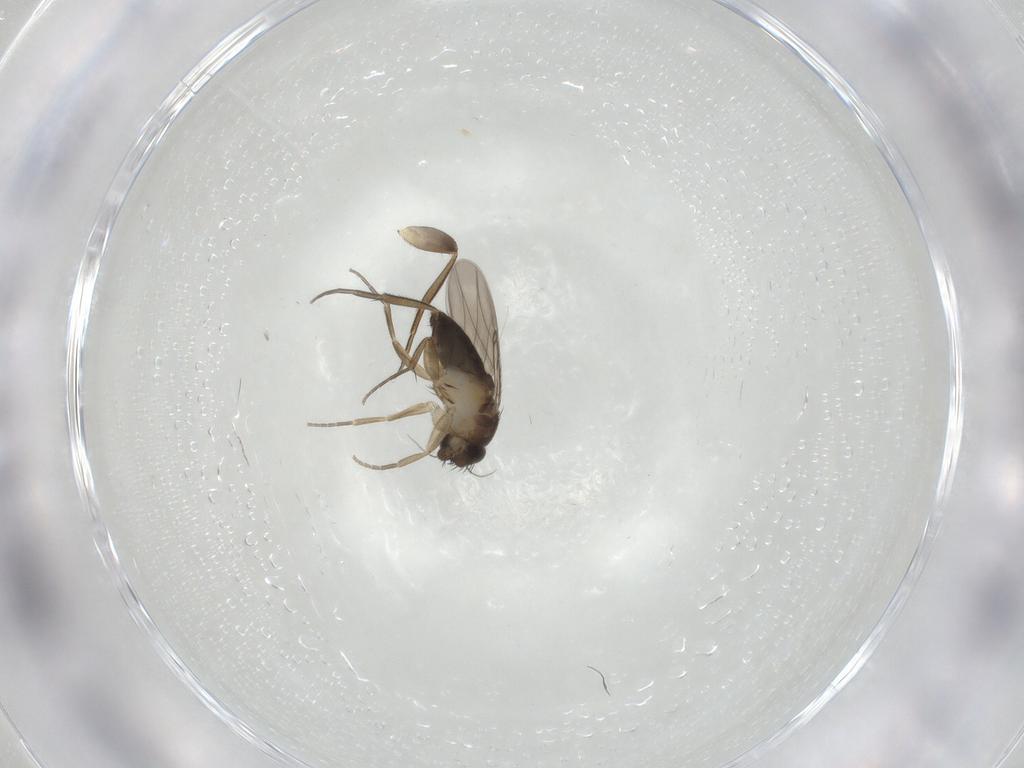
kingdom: Animalia
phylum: Arthropoda
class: Insecta
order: Diptera
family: Phoridae
